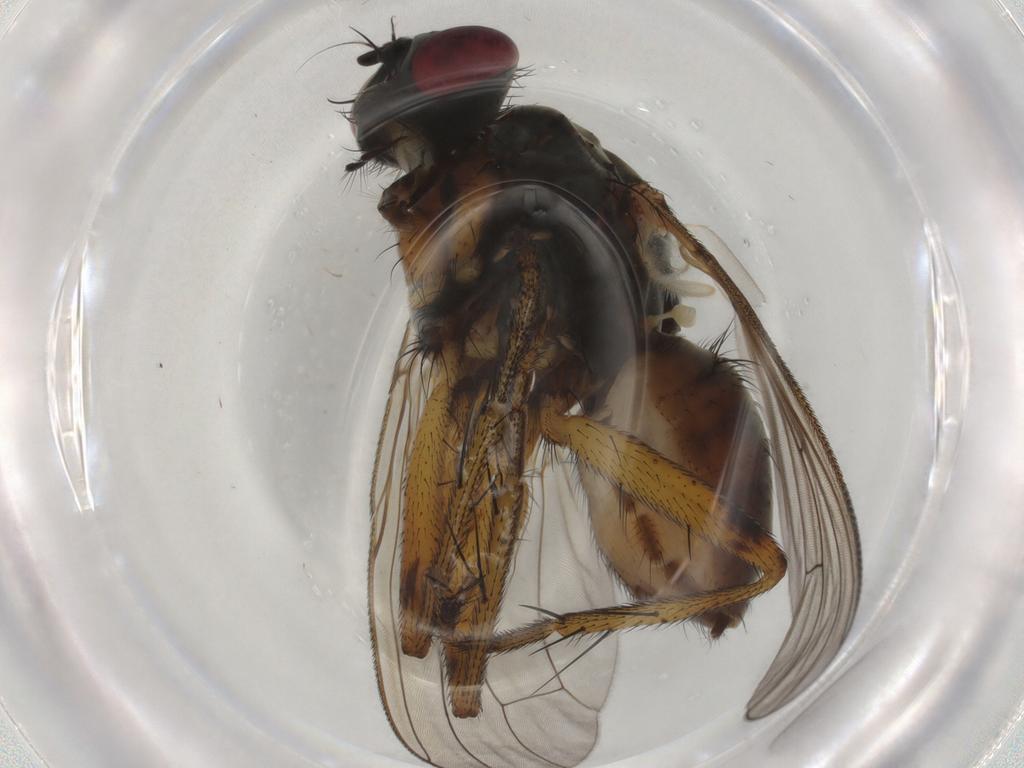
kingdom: Animalia
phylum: Arthropoda
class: Insecta
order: Diptera
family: Muscidae
